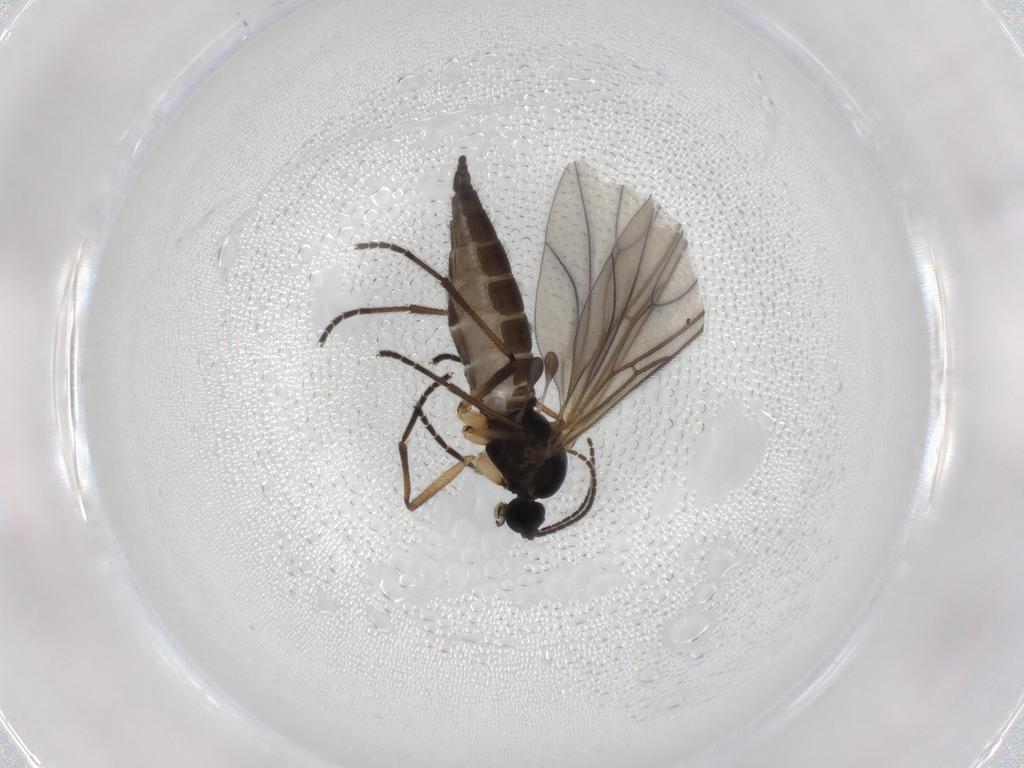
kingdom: Animalia
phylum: Arthropoda
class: Insecta
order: Diptera
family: Sciaridae
